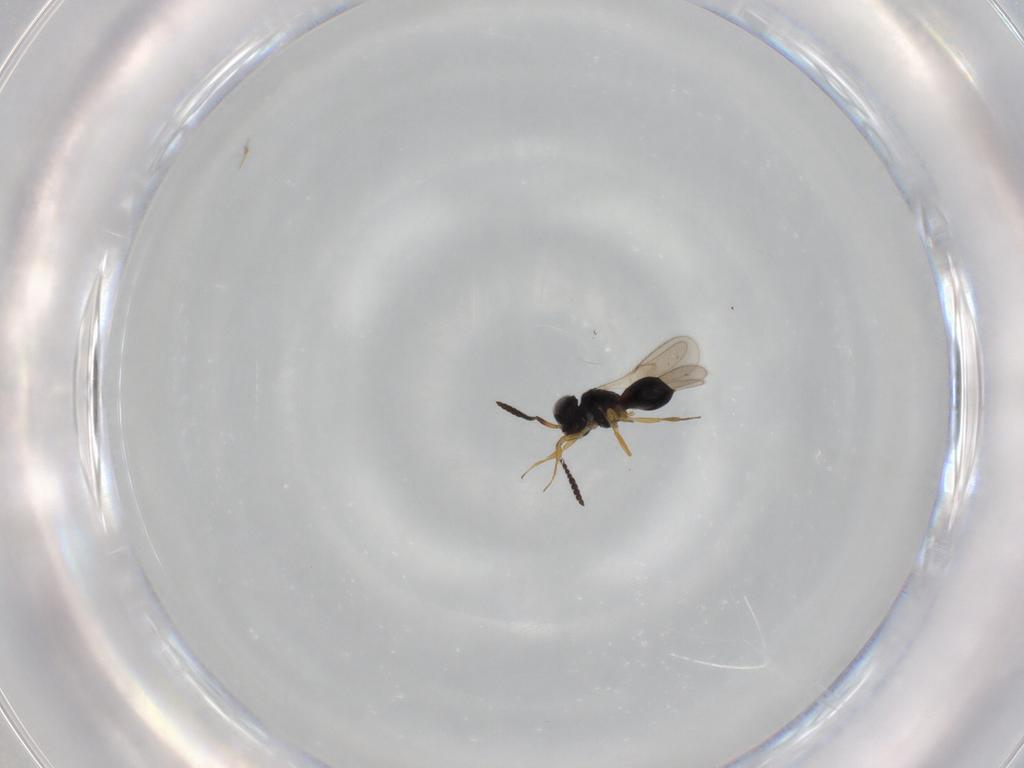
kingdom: Animalia
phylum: Arthropoda
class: Insecta
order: Hymenoptera
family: Scelionidae
